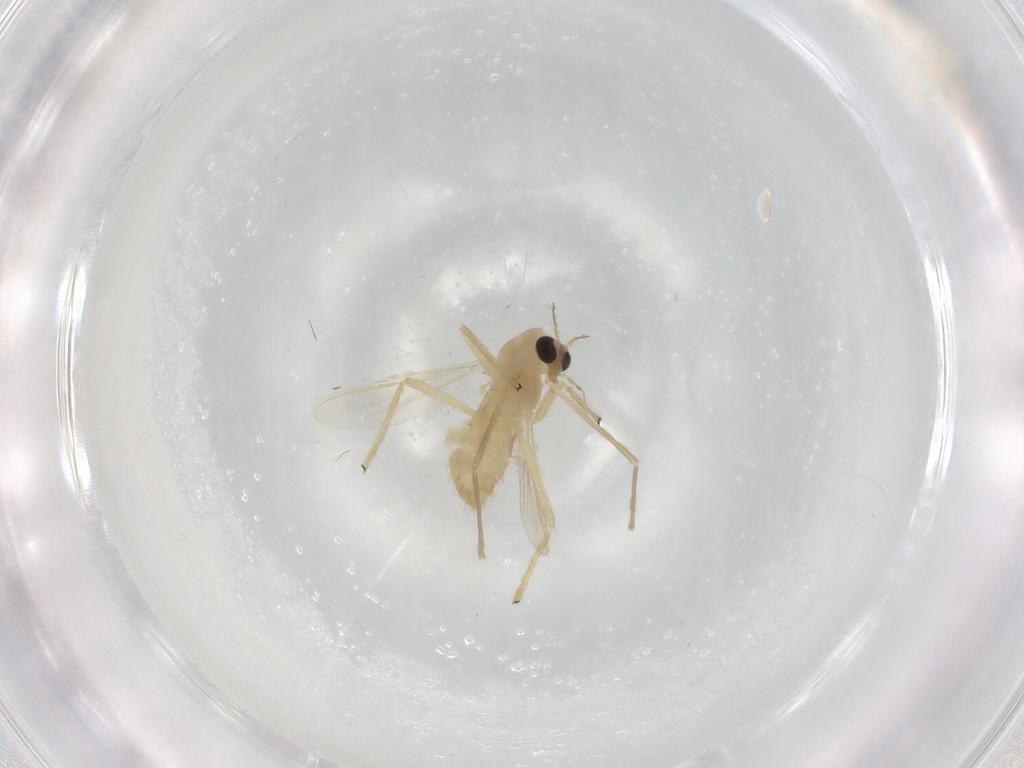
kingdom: Animalia
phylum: Arthropoda
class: Insecta
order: Diptera
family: Chironomidae
